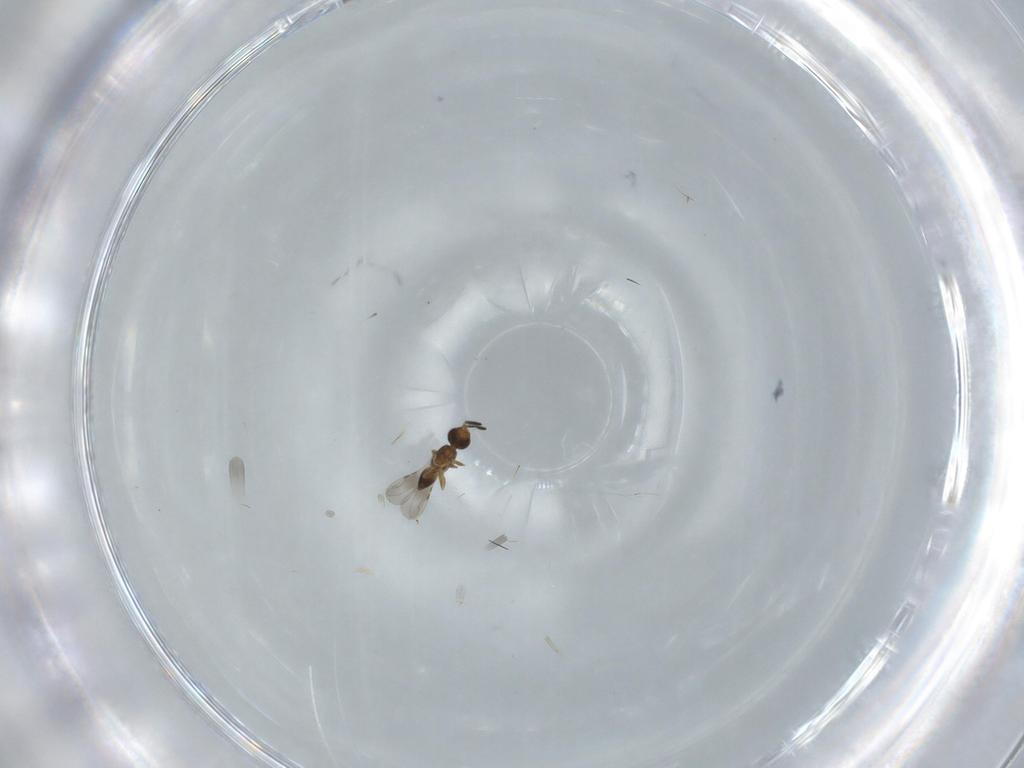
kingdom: Animalia
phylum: Arthropoda
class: Insecta
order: Hymenoptera
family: Ceraphronidae
